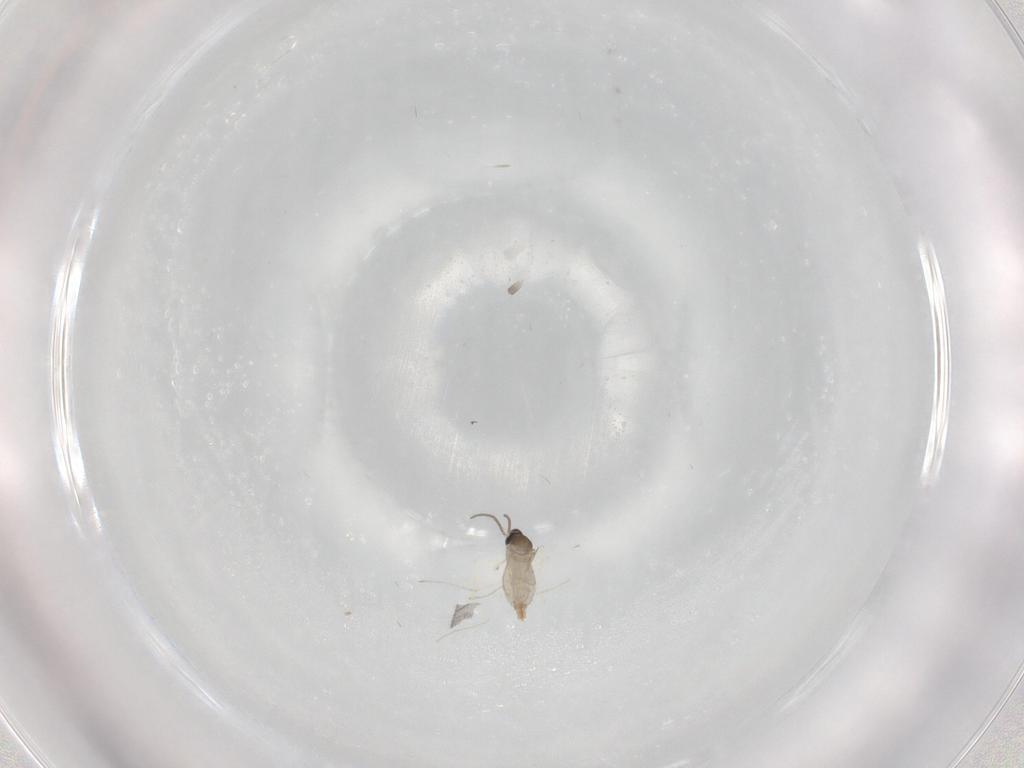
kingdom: Animalia
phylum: Arthropoda
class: Insecta
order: Diptera
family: Cecidomyiidae
